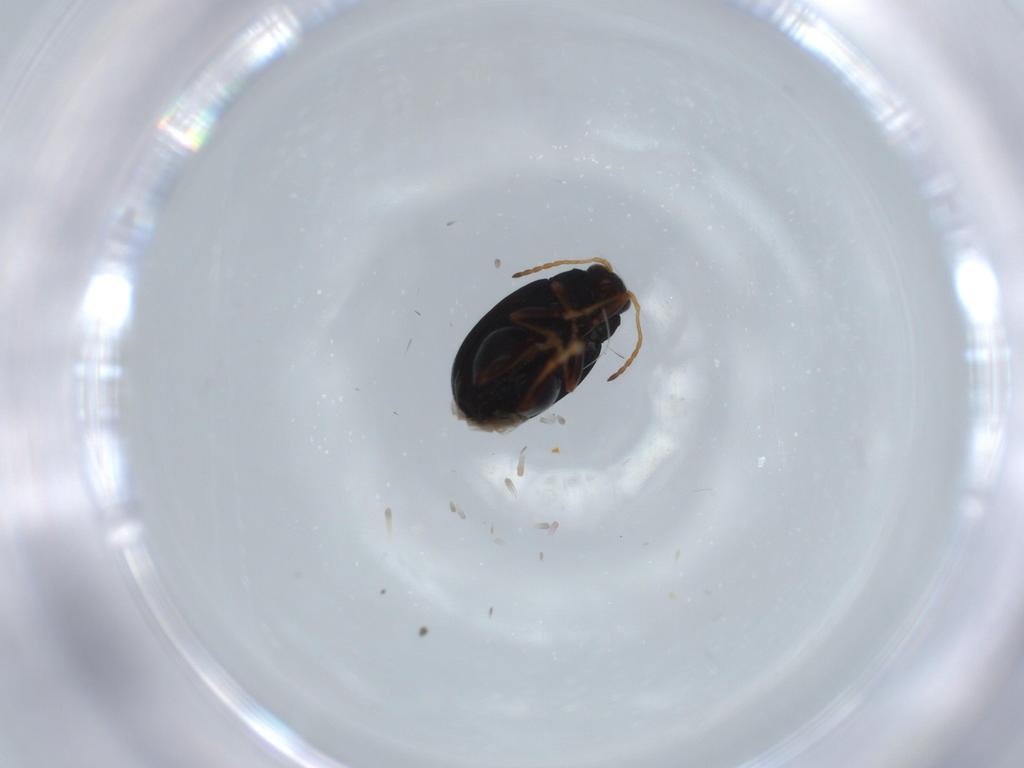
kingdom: Animalia
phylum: Arthropoda
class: Insecta
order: Coleoptera
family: Chrysomelidae
